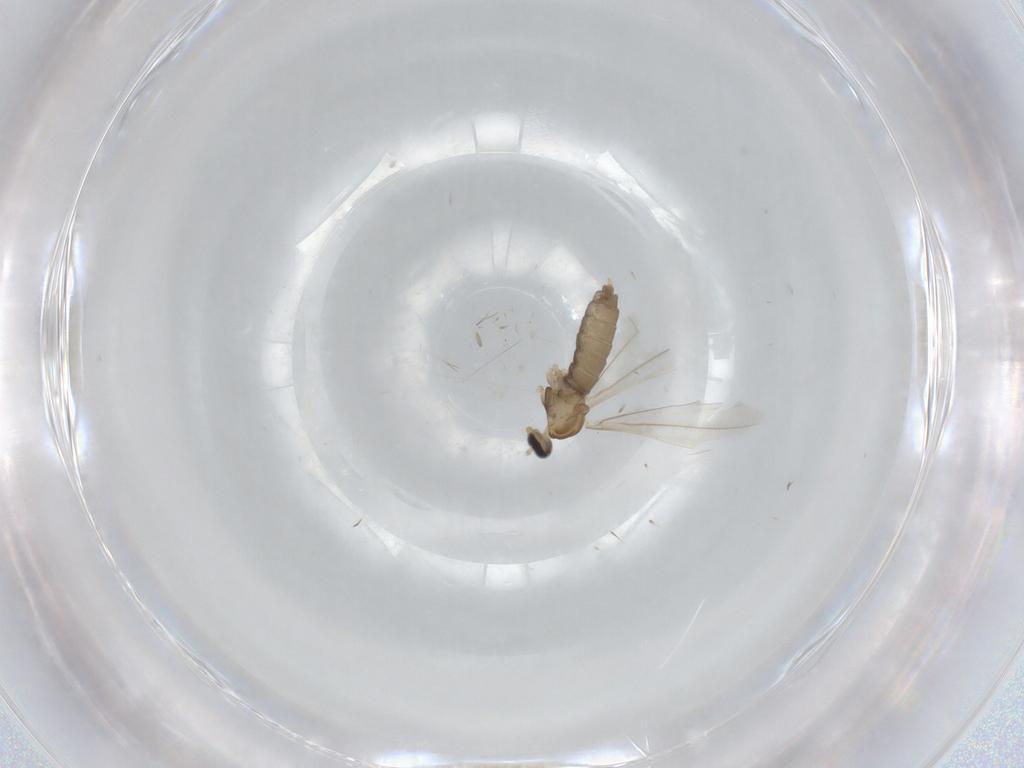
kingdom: Animalia
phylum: Arthropoda
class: Insecta
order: Diptera
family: Cecidomyiidae
